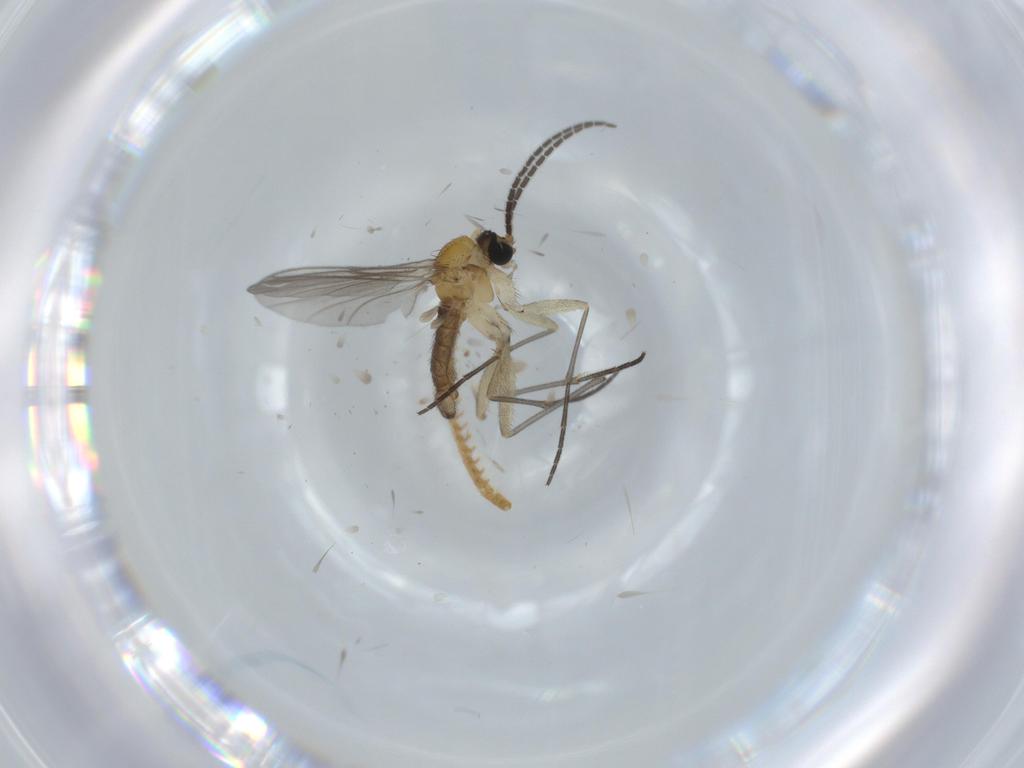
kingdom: Animalia
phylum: Arthropoda
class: Insecta
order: Diptera
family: Sciaridae
